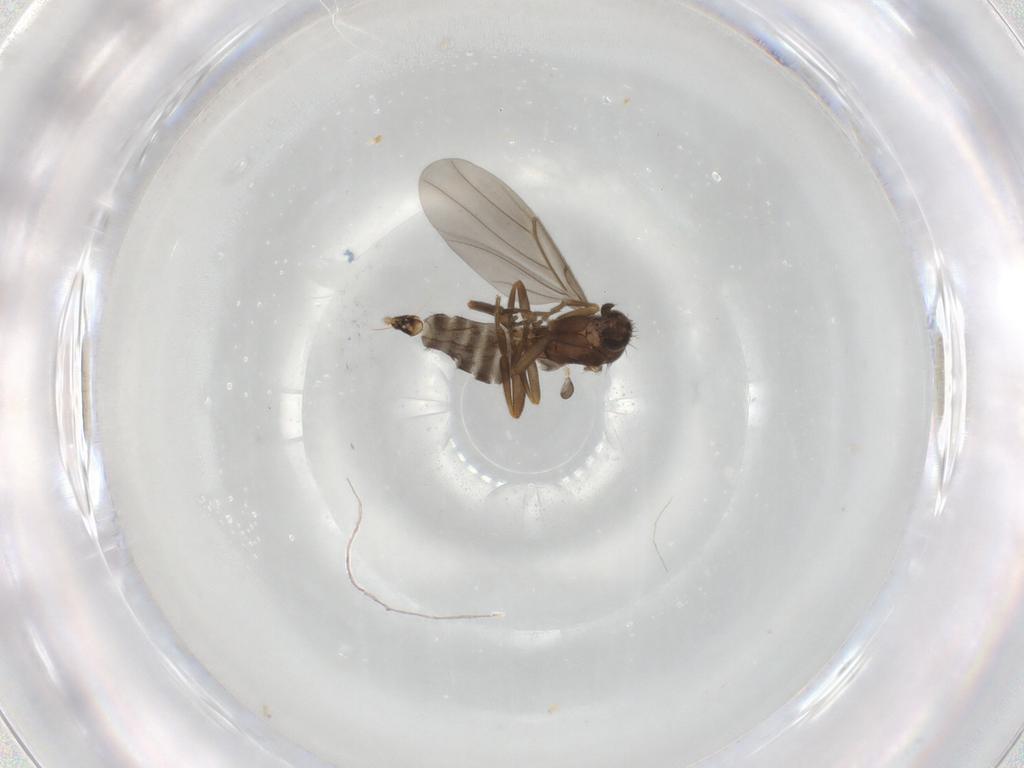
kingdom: Animalia
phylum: Arthropoda
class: Insecta
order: Diptera
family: Phoridae
